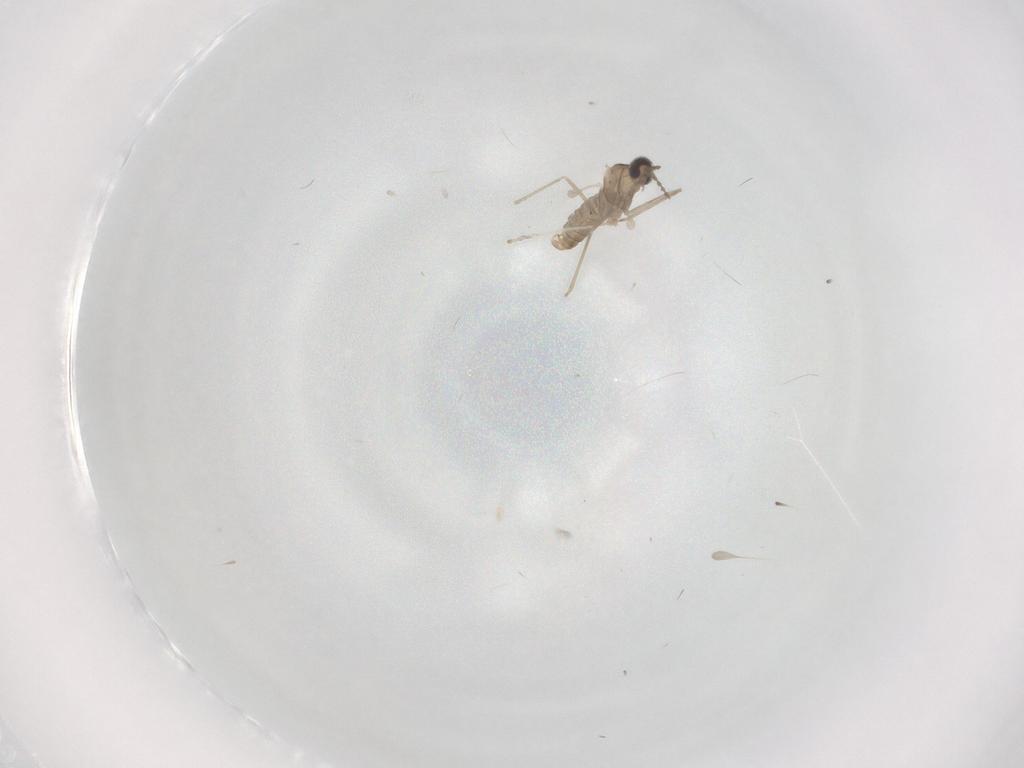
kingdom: Animalia
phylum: Arthropoda
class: Insecta
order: Diptera
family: Cecidomyiidae
